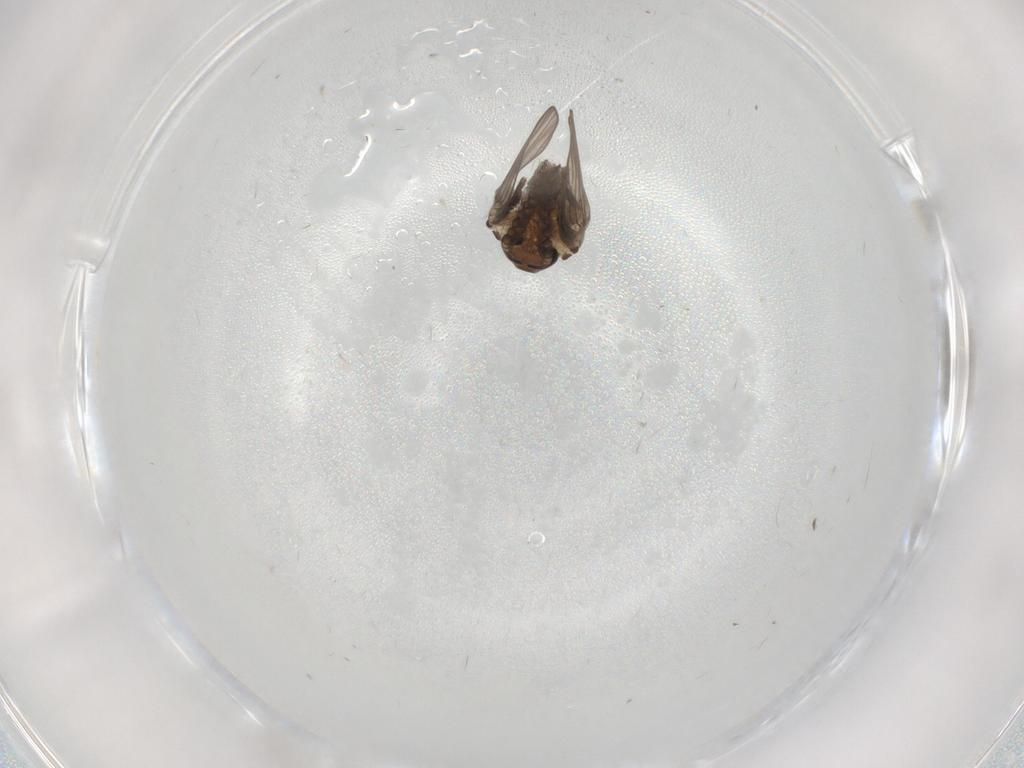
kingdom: Animalia
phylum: Arthropoda
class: Insecta
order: Diptera
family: Psychodidae
